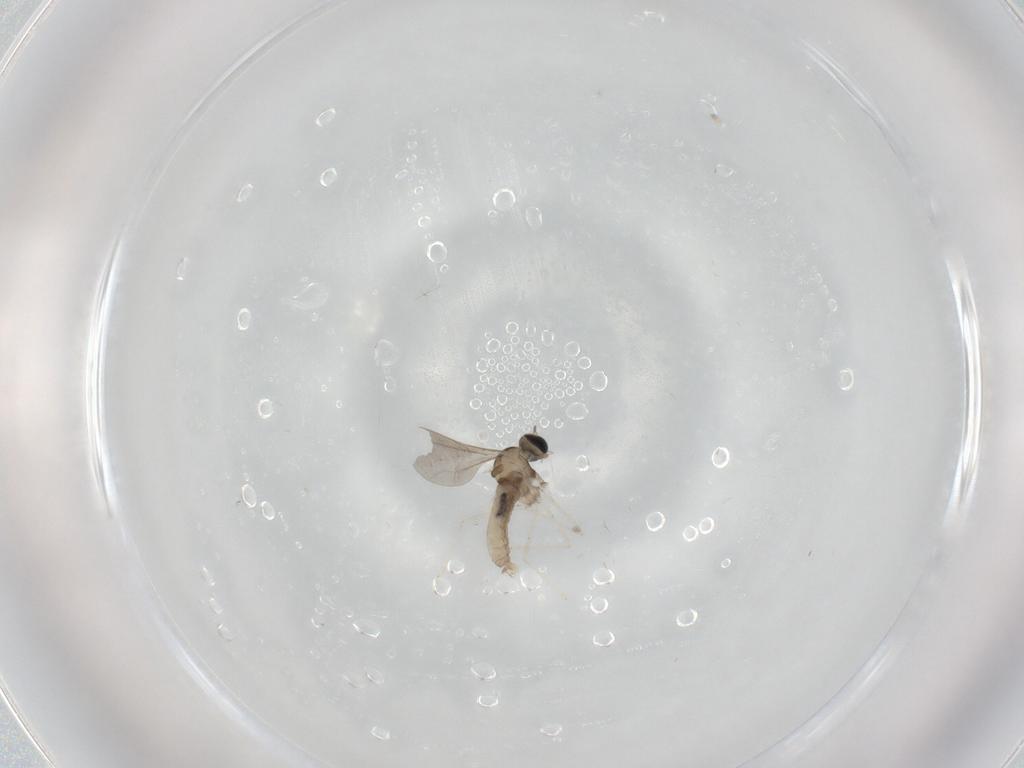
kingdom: Animalia
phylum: Arthropoda
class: Insecta
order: Diptera
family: Cecidomyiidae
